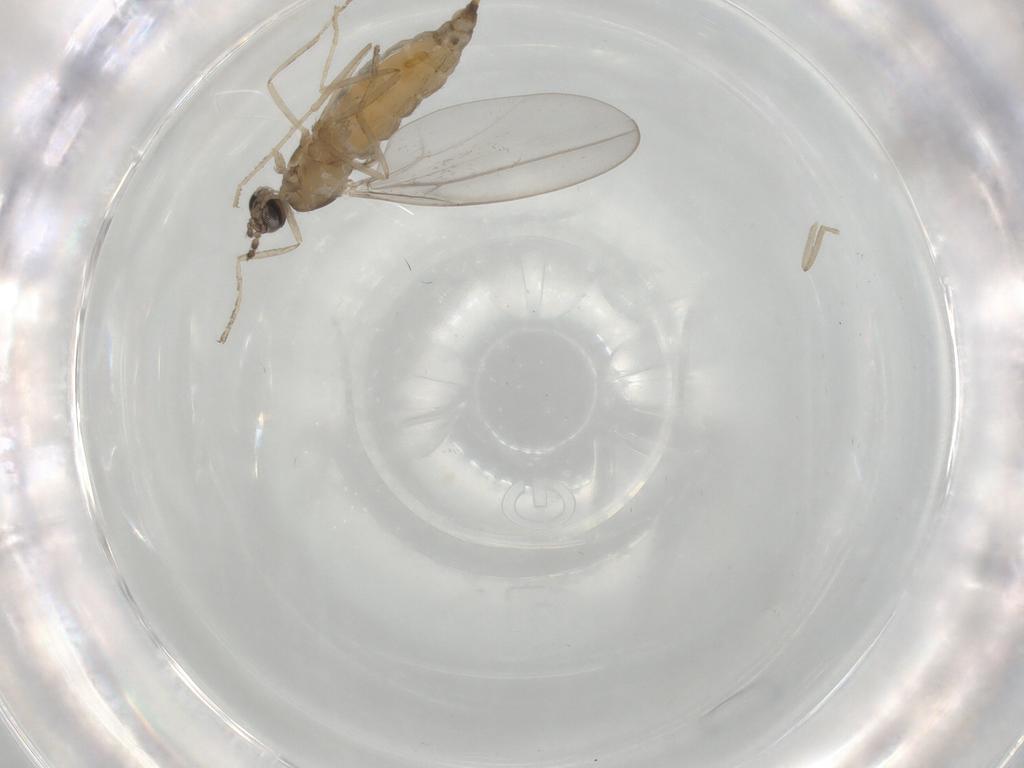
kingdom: Animalia
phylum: Arthropoda
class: Insecta
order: Diptera
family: Cecidomyiidae
